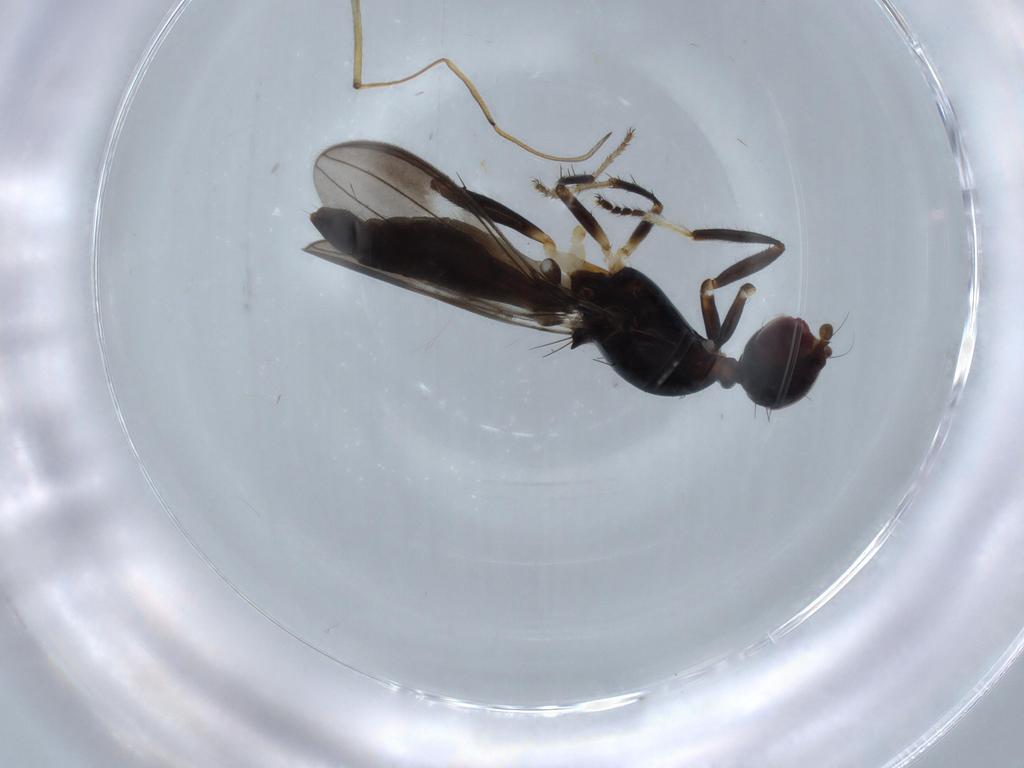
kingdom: Animalia
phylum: Arthropoda
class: Insecta
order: Diptera
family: Cypselosomatidae
